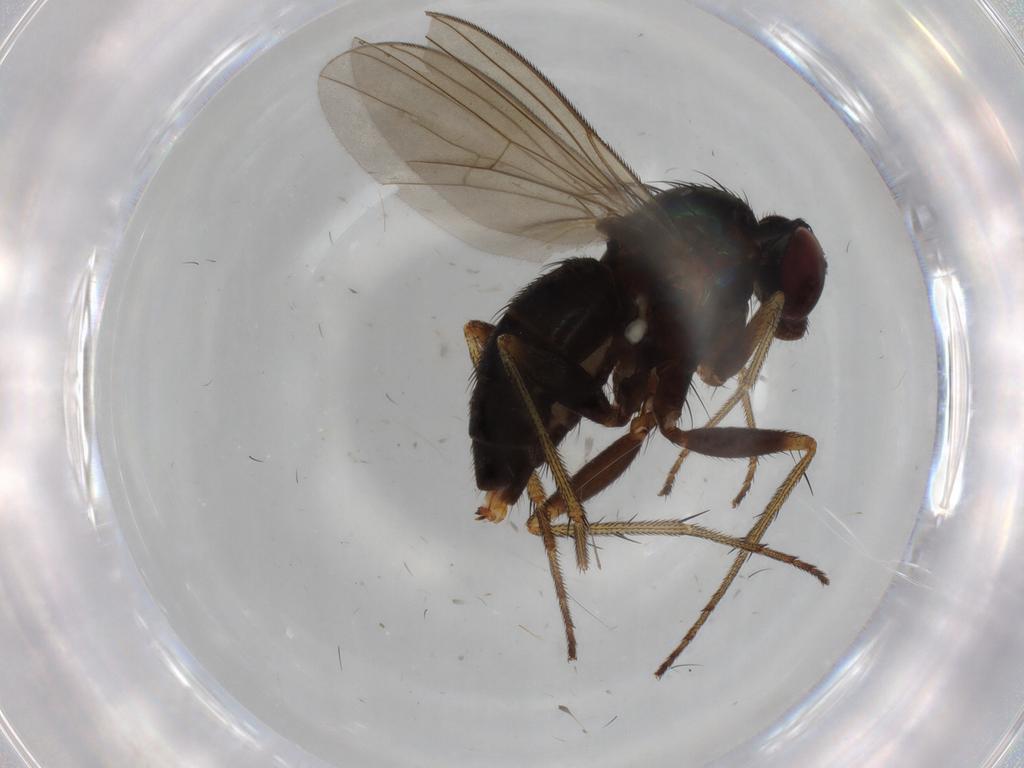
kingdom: Animalia
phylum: Arthropoda
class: Insecta
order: Diptera
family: Dolichopodidae
